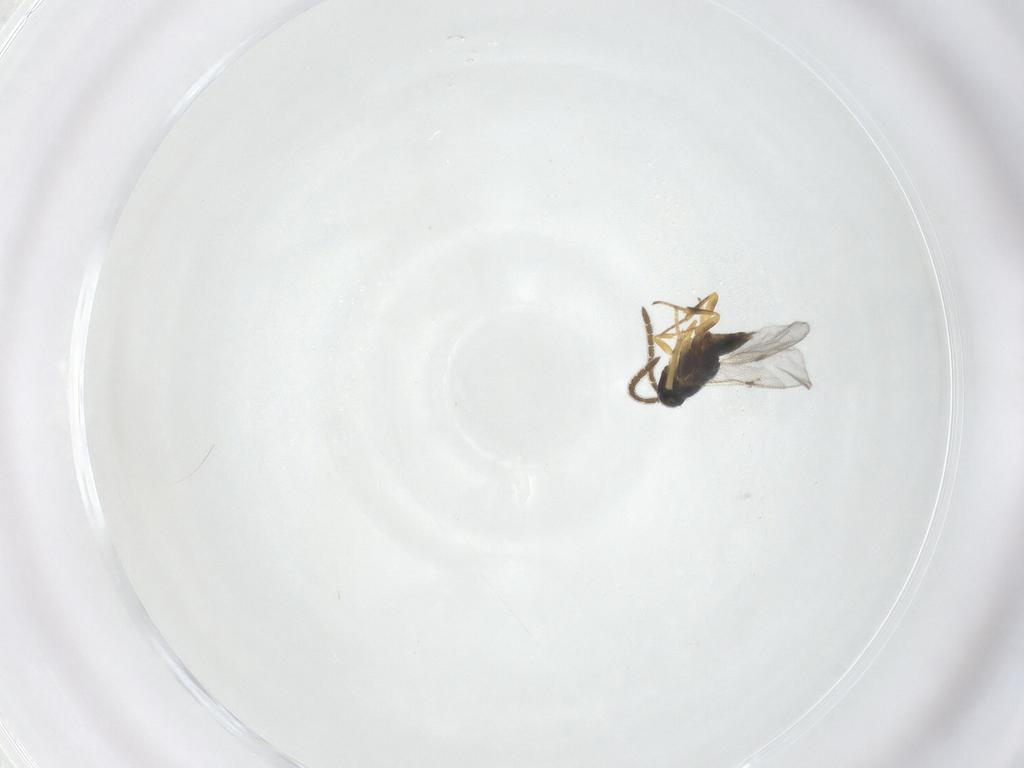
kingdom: Animalia
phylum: Arthropoda
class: Insecta
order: Hymenoptera
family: Encyrtidae
